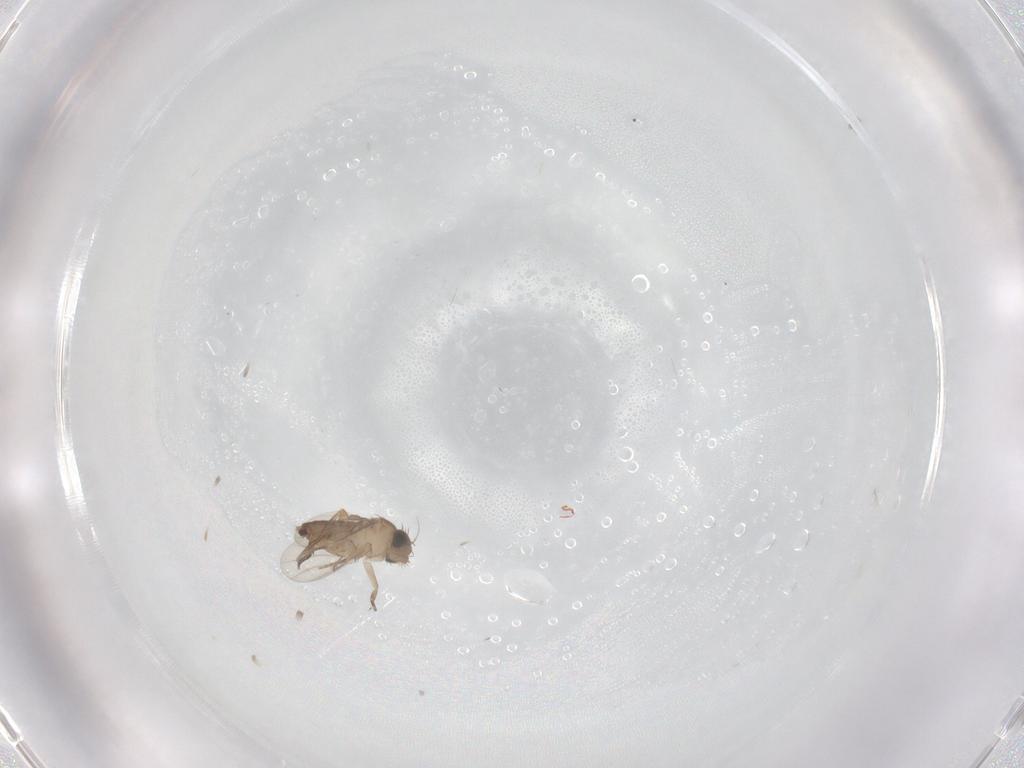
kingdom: Animalia
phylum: Arthropoda
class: Insecta
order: Diptera
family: Phoridae
